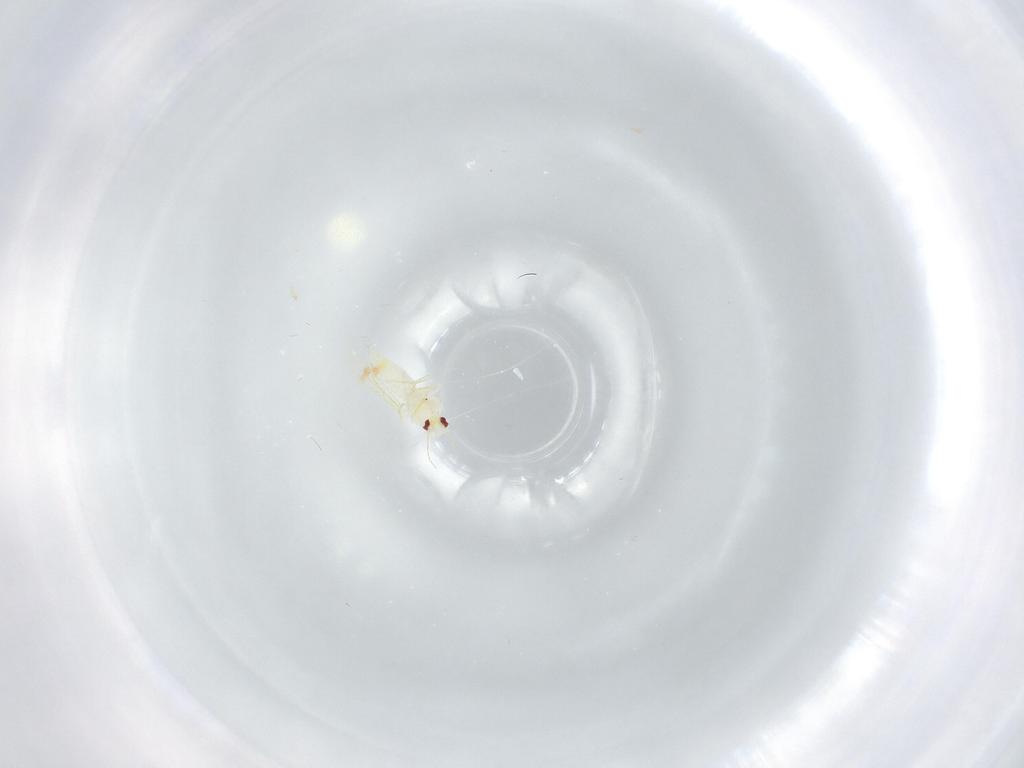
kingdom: Animalia
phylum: Arthropoda
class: Insecta
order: Hemiptera
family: Aleyrodidae
